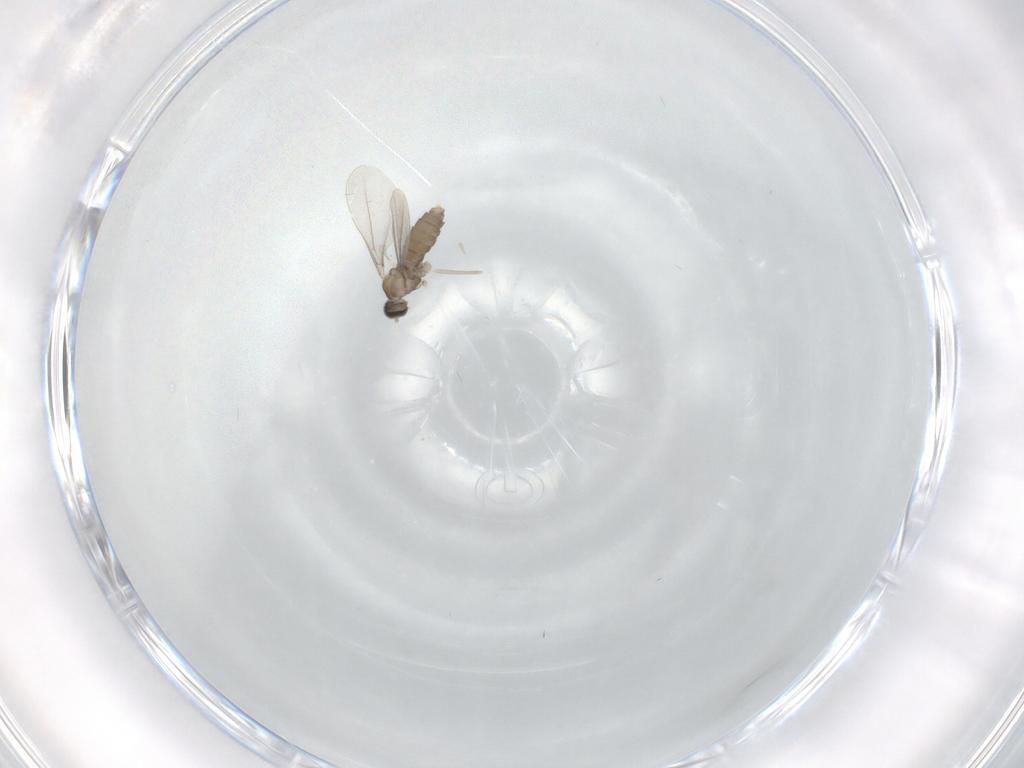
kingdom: Animalia
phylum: Arthropoda
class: Insecta
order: Diptera
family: Cecidomyiidae
